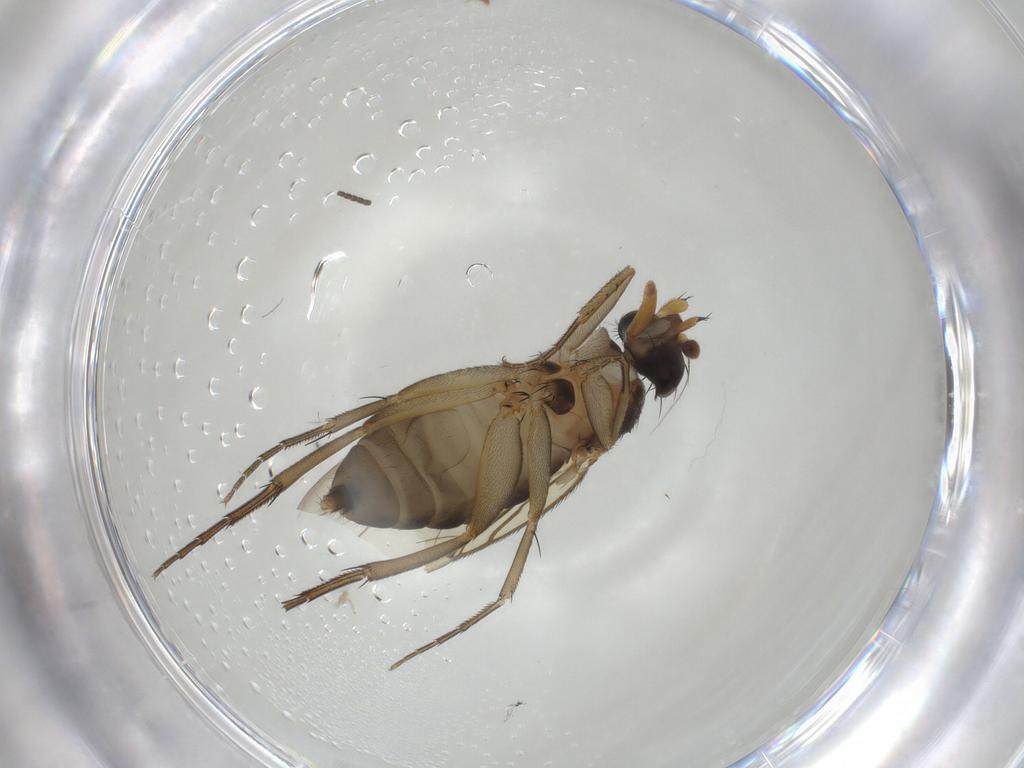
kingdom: Animalia
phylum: Arthropoda
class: Insecta
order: Diptera
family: Phoridae
